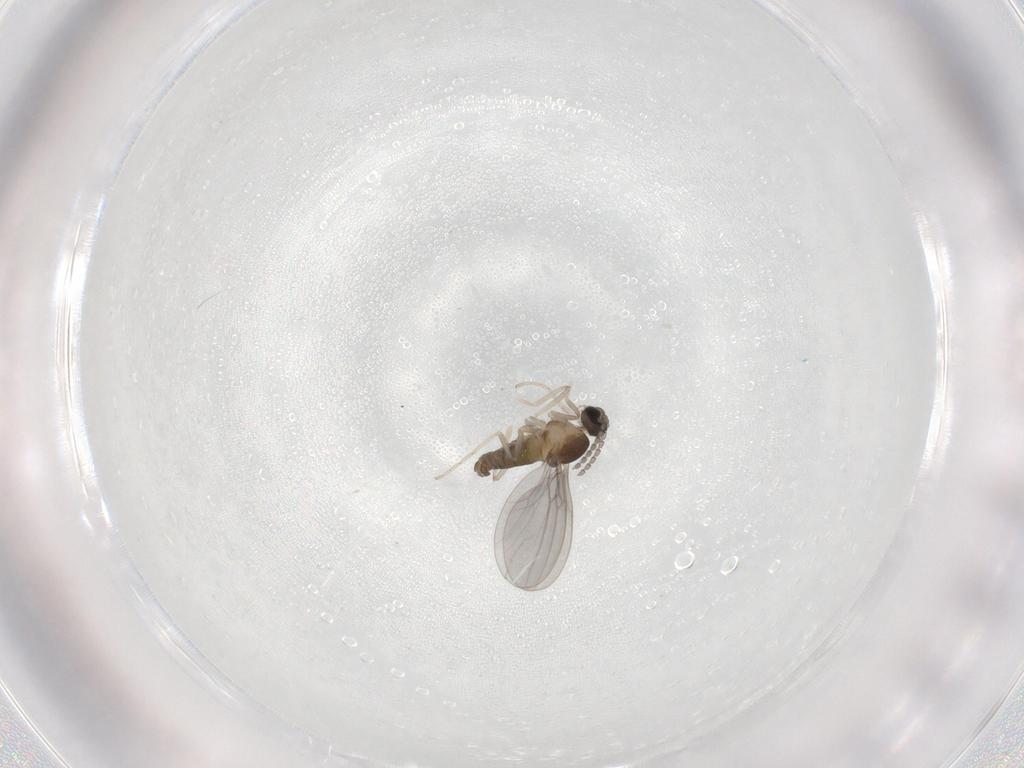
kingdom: Animalia
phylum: Arthropoda
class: Insecta
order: Diptera
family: Cecidomyiidae
